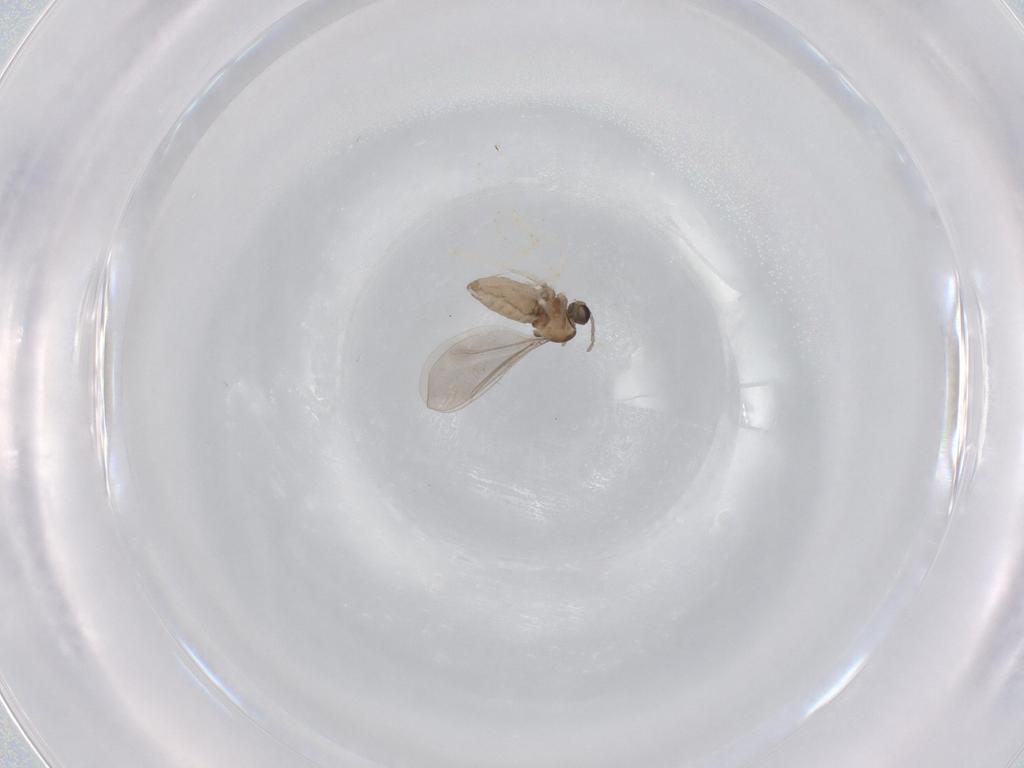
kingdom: Animalia
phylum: Arthropoda
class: Insecta
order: Diptera
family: Cecidomyiidae
